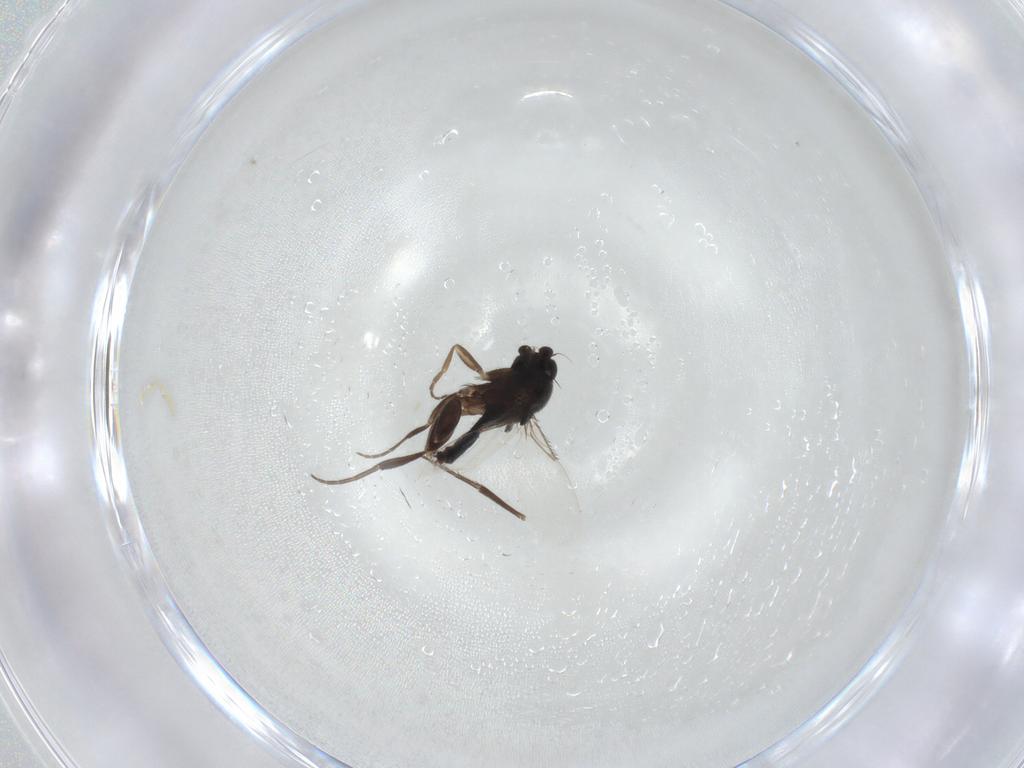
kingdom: Animalia
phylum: Arthropoda
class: Insecta
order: Diptera
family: Phoridae
